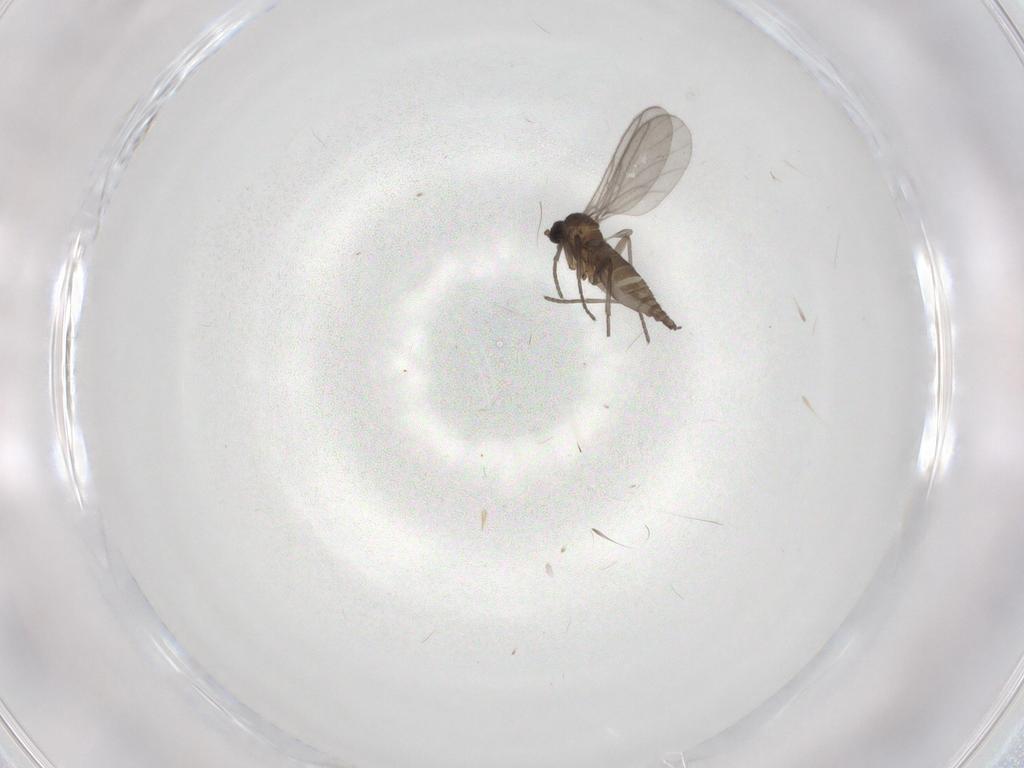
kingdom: Animalia
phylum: Arthropoda
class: Insecta
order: Diptera
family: Sciaridae
